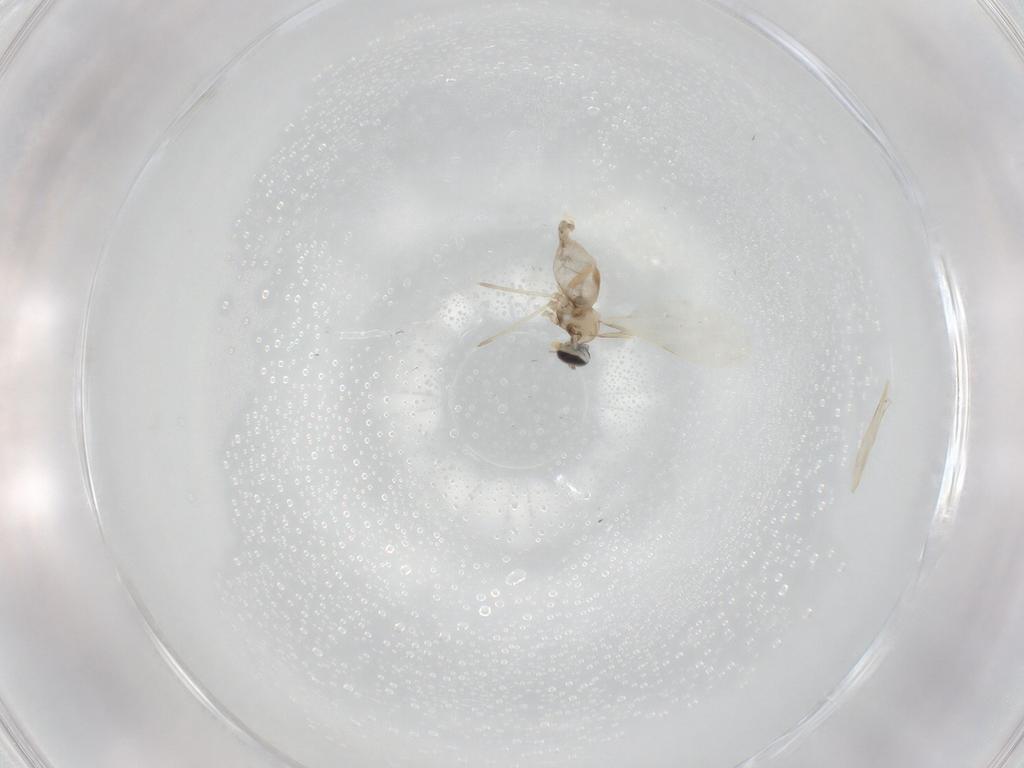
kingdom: Animalia
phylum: Arthropoda
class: Insecta
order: Diptera
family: Cecidomyiidae
